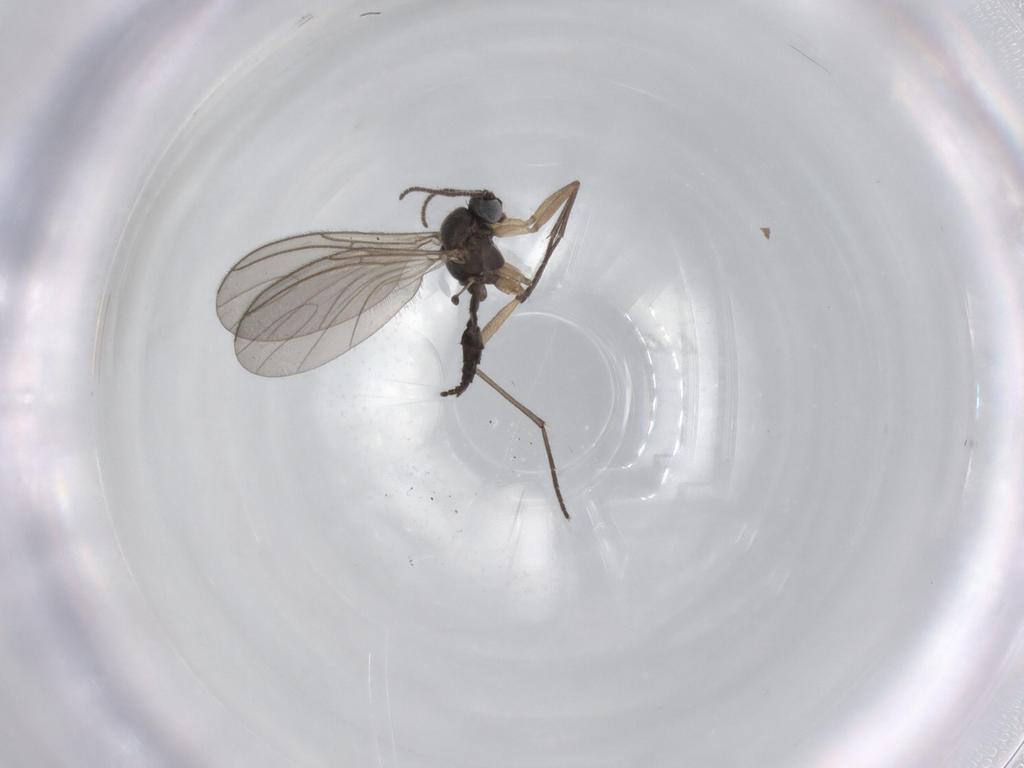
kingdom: Animalia
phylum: Arthropoda
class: Insecta
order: Diptera
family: Sciaridae
